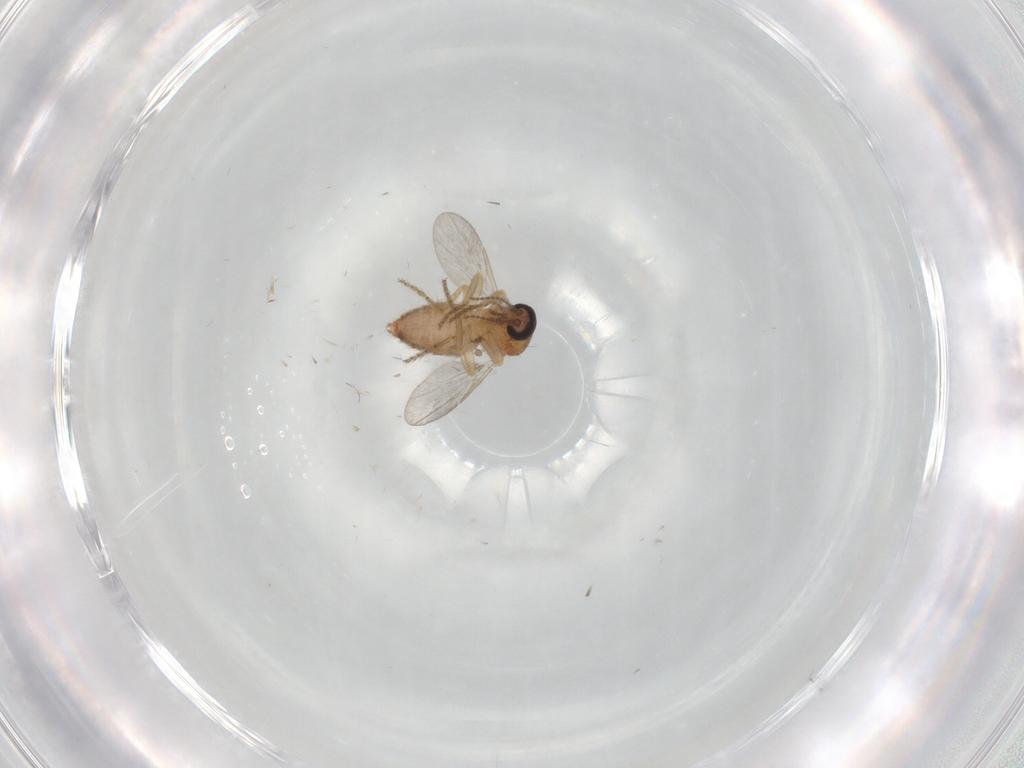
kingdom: Animalia
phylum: Arthropoda
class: Insecta
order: Diptera
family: Ceratopogonidae
